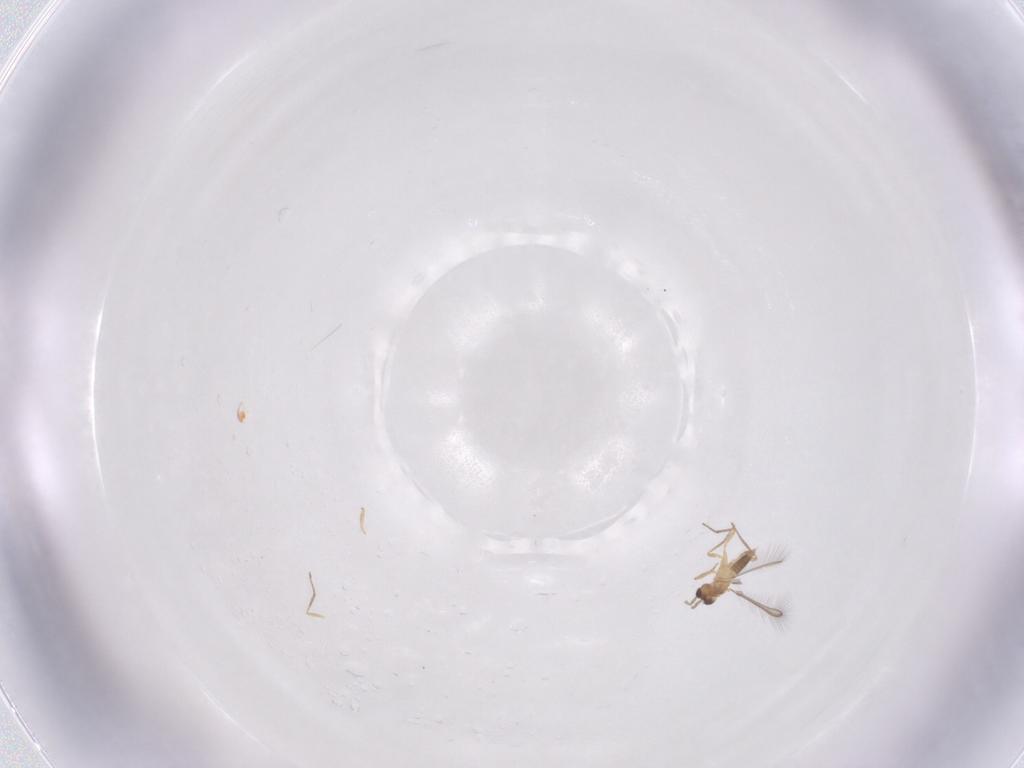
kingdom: Animalia
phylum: Arthropoda
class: Insecta
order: Hymenoptera
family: Mymaridae
